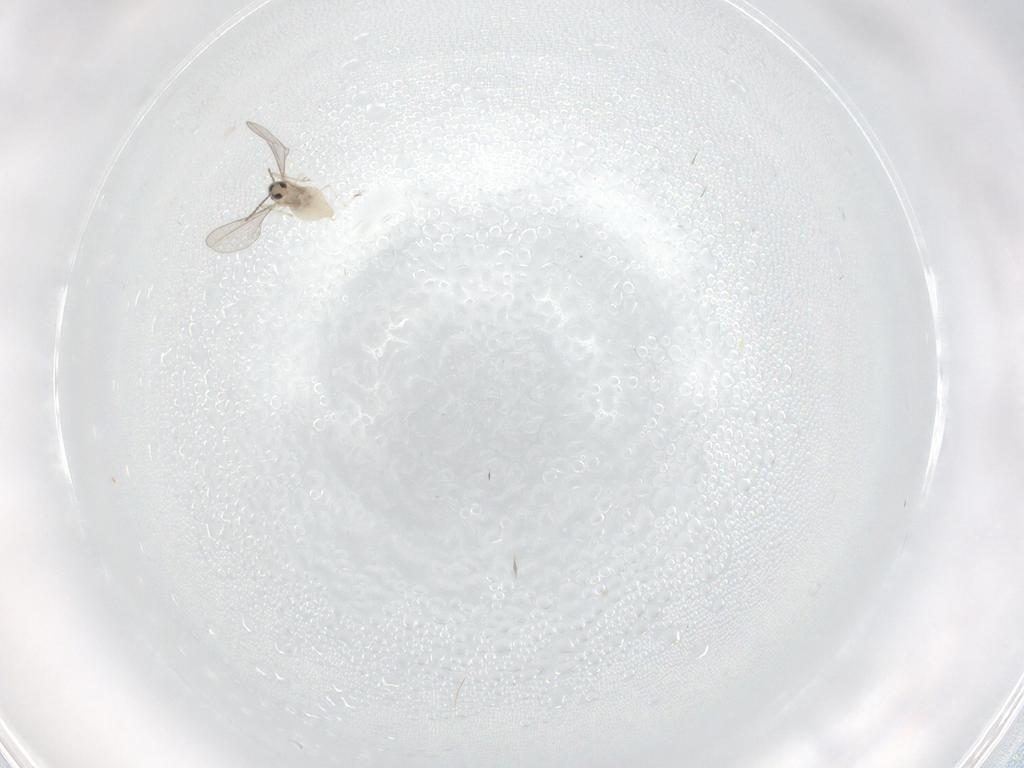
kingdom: Animalia
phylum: Arthropoda
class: Insecta
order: Diptera
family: Cecidomyiidae
